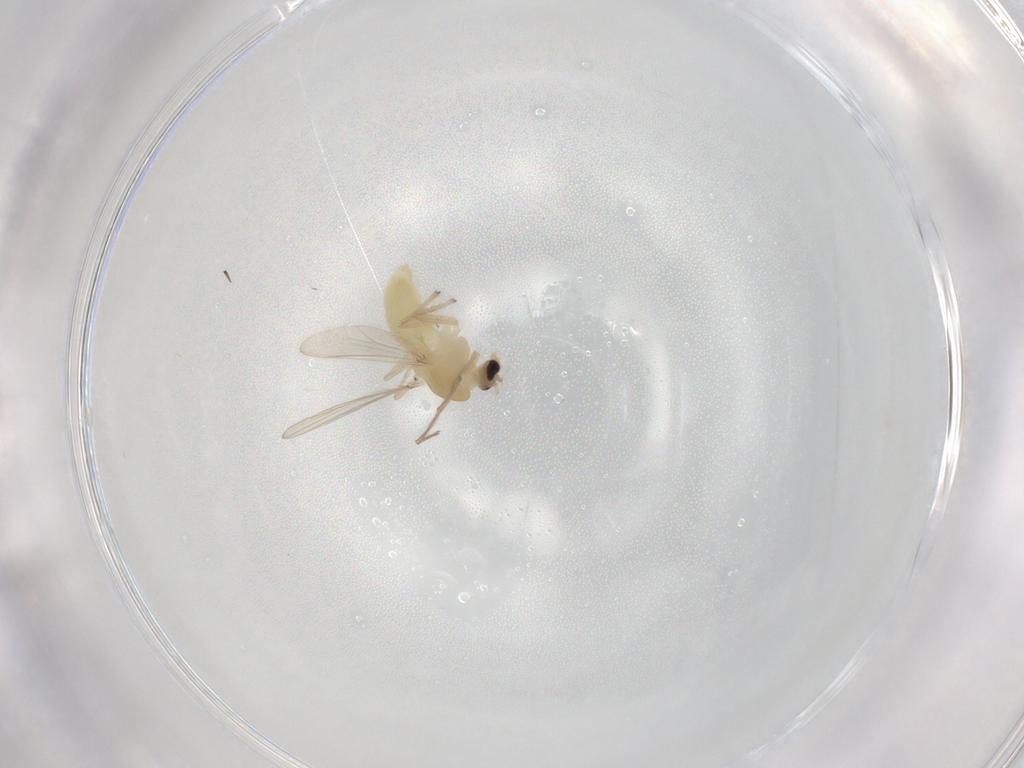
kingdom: Animalia
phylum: Arthropoda
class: Insecta
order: Diptera
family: Chironomidae
